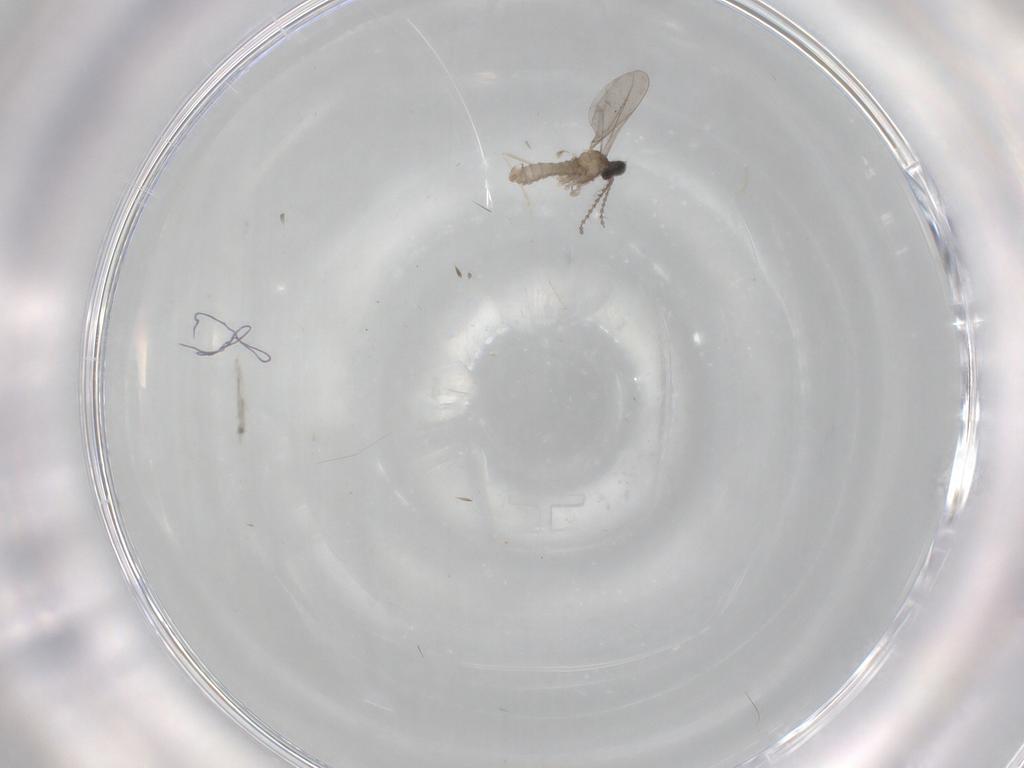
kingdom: Animalia
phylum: Arthropoda
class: Insecta
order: Diptera
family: Cecidomyiidae
